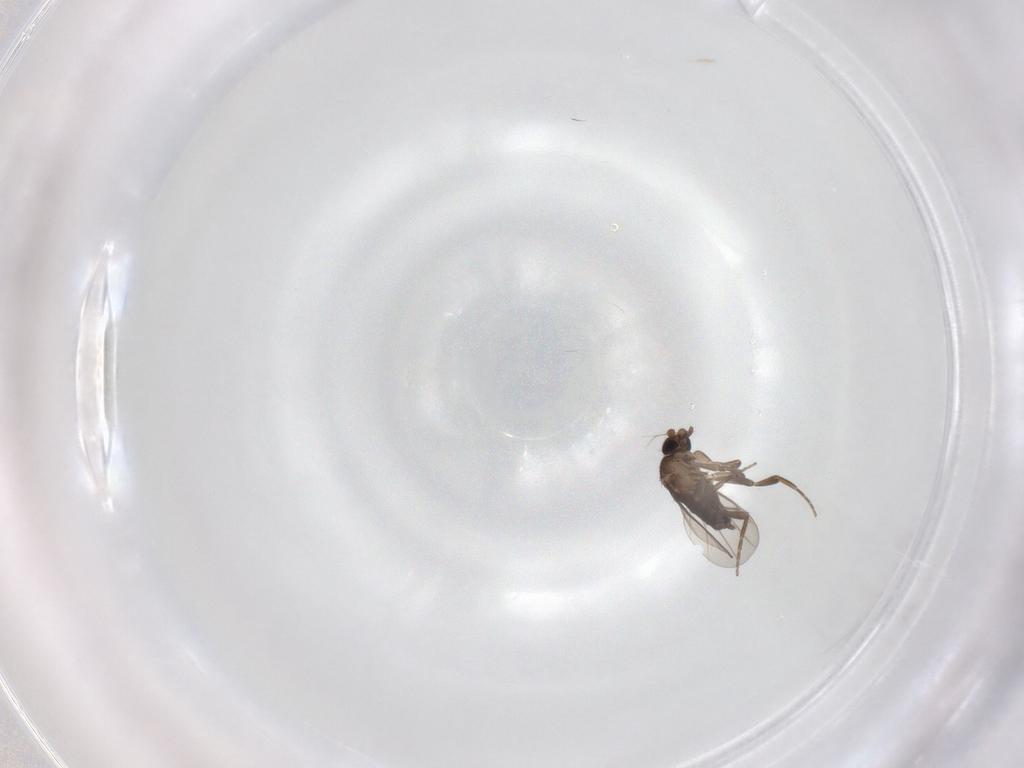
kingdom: Animalia
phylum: Arthropoda
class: Insecta
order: Diptera
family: Phoridae
